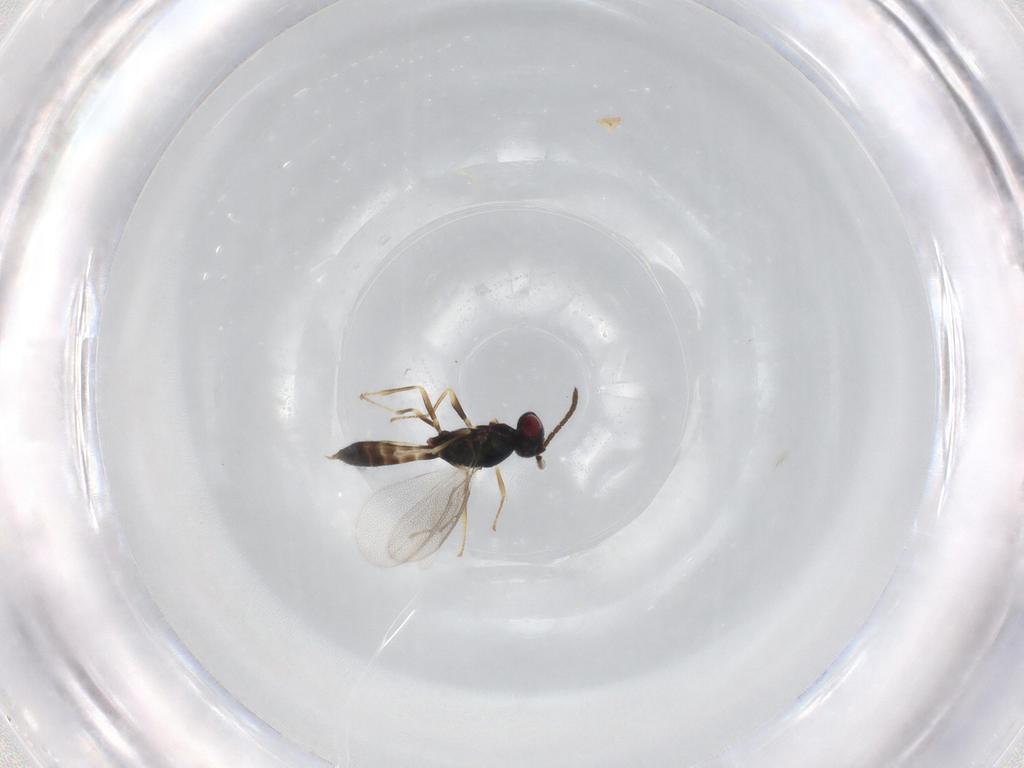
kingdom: Animalia
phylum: Arthropoda
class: Insecta
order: Hymenoptera
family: Pteromalidae
